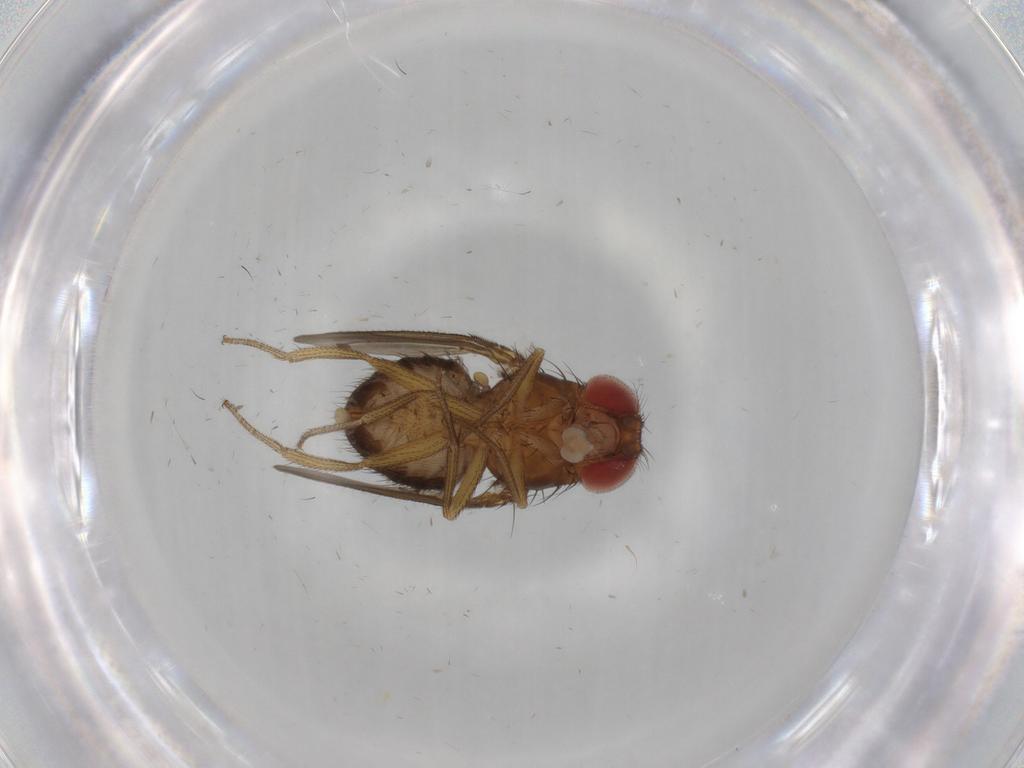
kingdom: Animalia
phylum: Arthropoda
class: Insecta
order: Diptera
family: Drosophilidae
